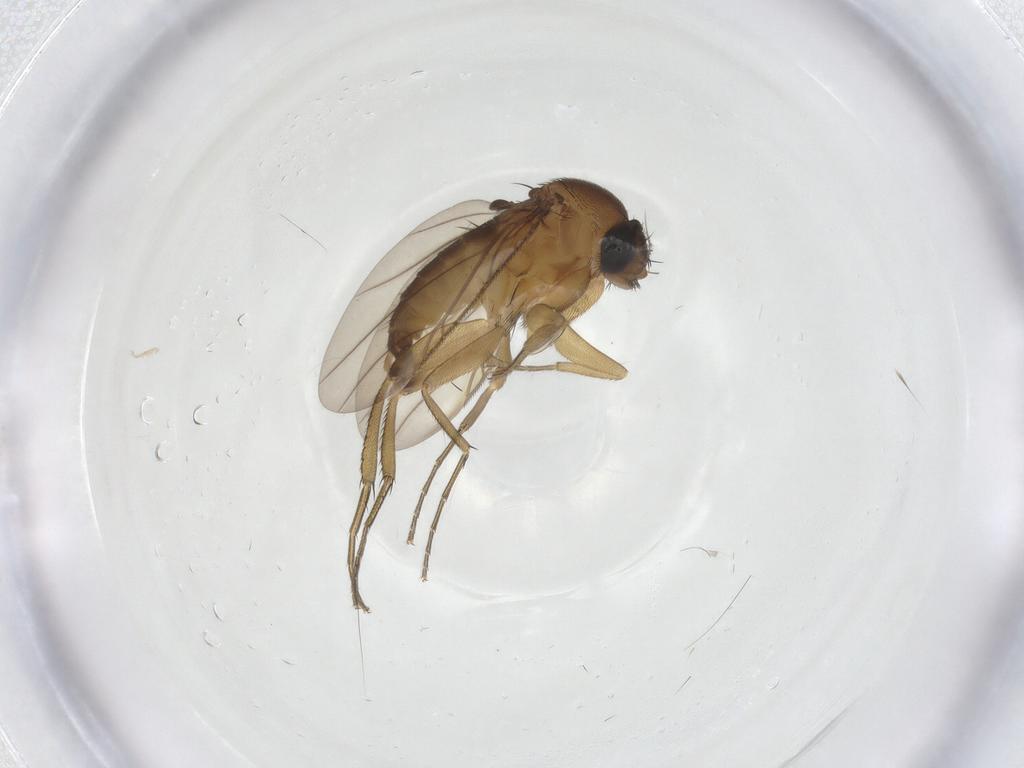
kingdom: Animalia
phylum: Arthropoda
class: Insecta
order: Diptera
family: Phoridae
